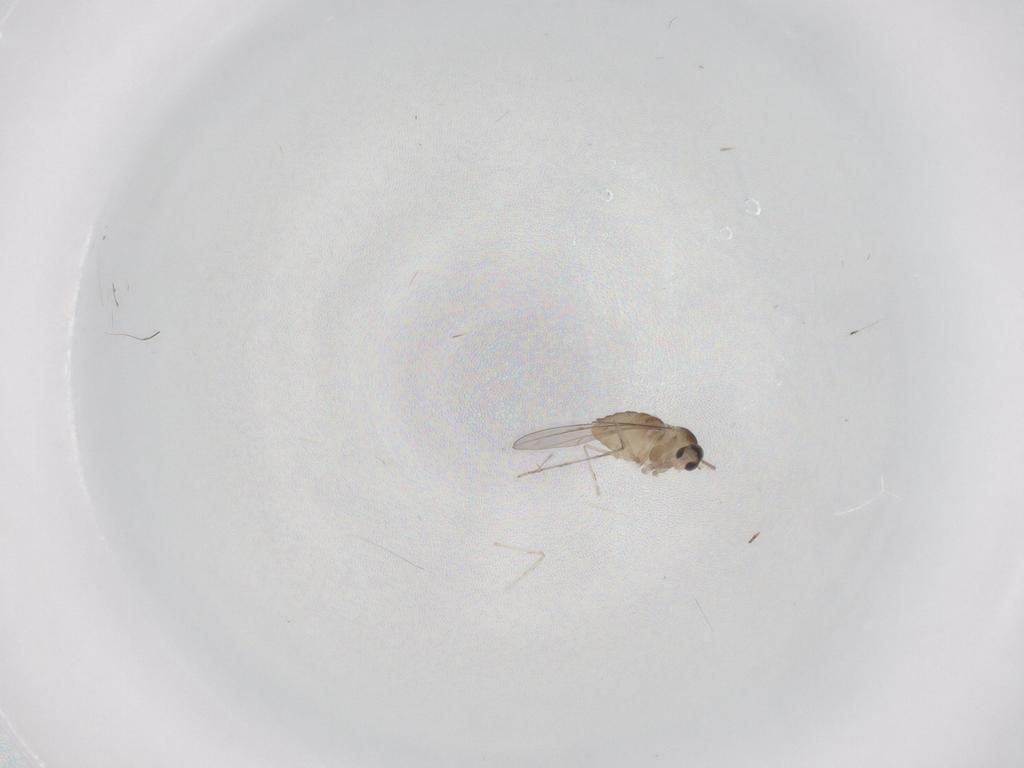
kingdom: Animalia
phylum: Arthropoda
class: Insecta
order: Diptera
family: Cecidomyiidae
